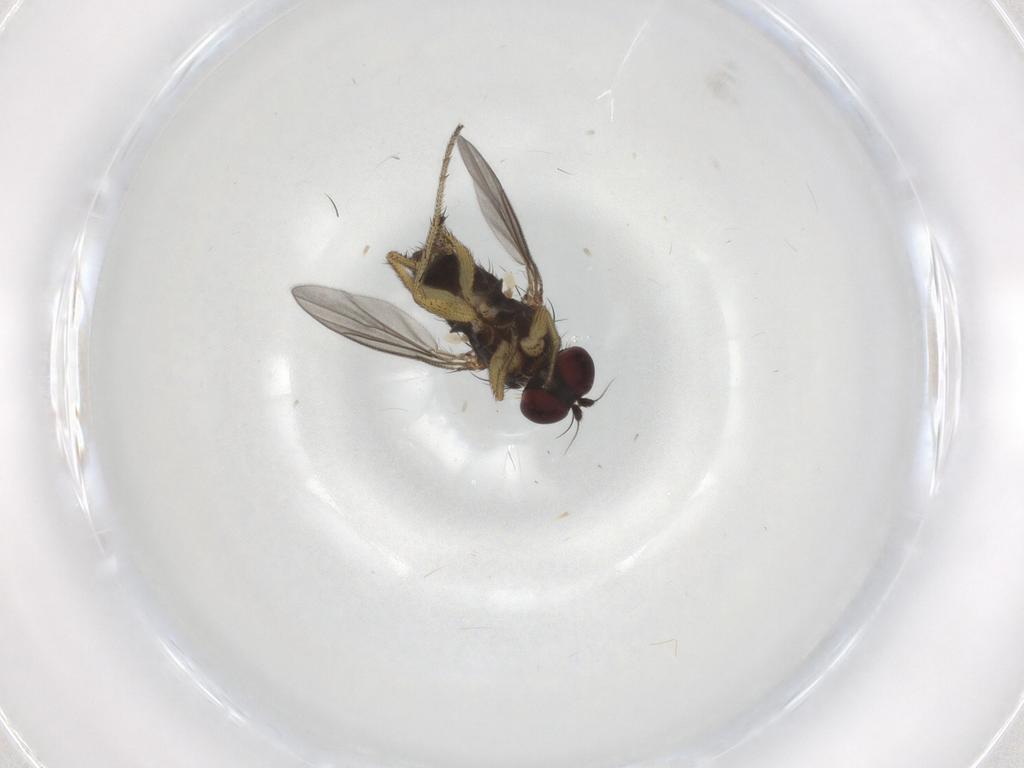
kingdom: Animalia
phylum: Arthropoda
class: Insecta
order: Diptera
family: Dolichopodidae
